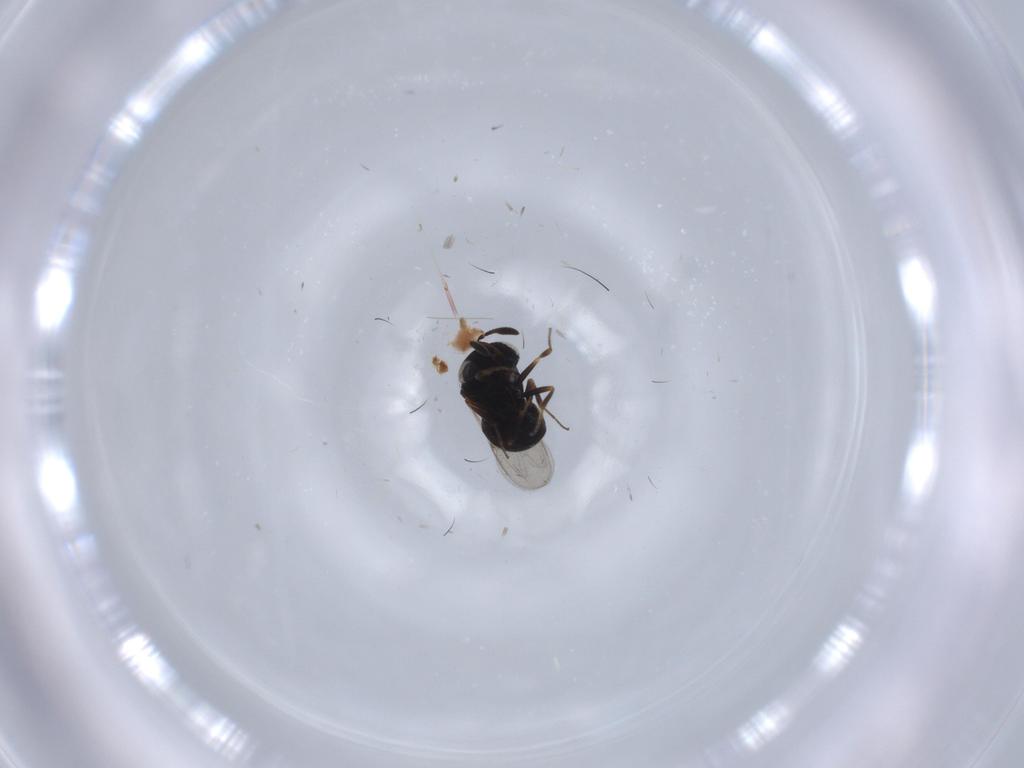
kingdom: Animalia
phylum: Arthropoda
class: Insecta
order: Hymenoptera
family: Scelionidae
